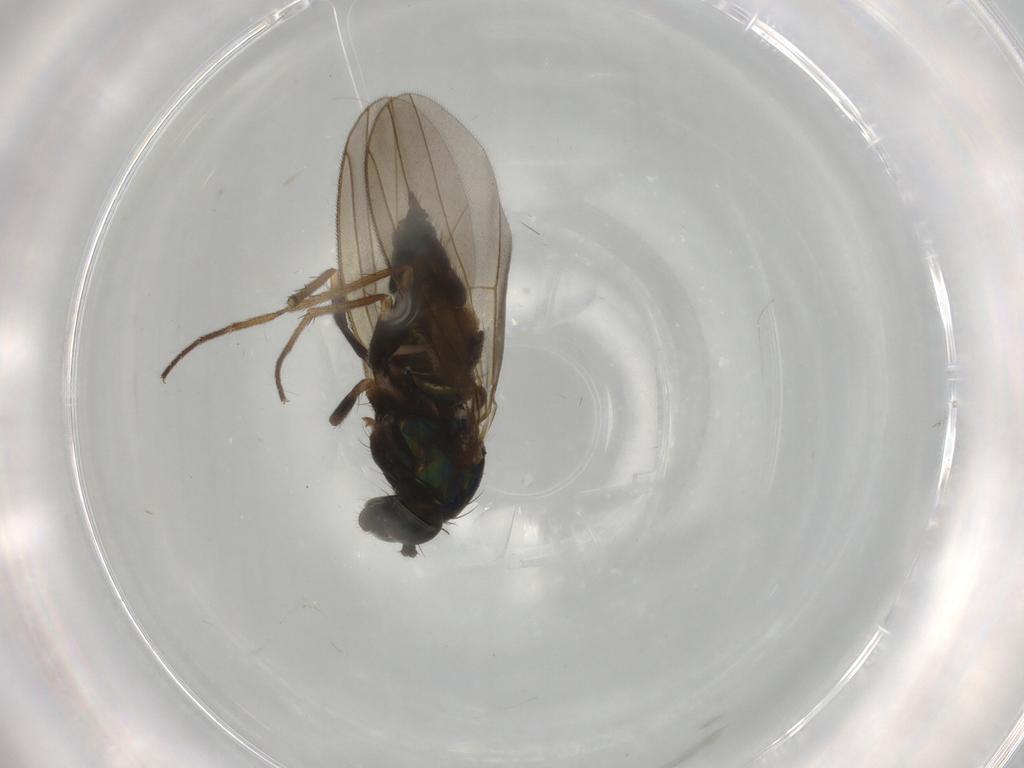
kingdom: Animalia
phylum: Arthropoda
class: Insecta
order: Diptera
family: Dolichopodidae
